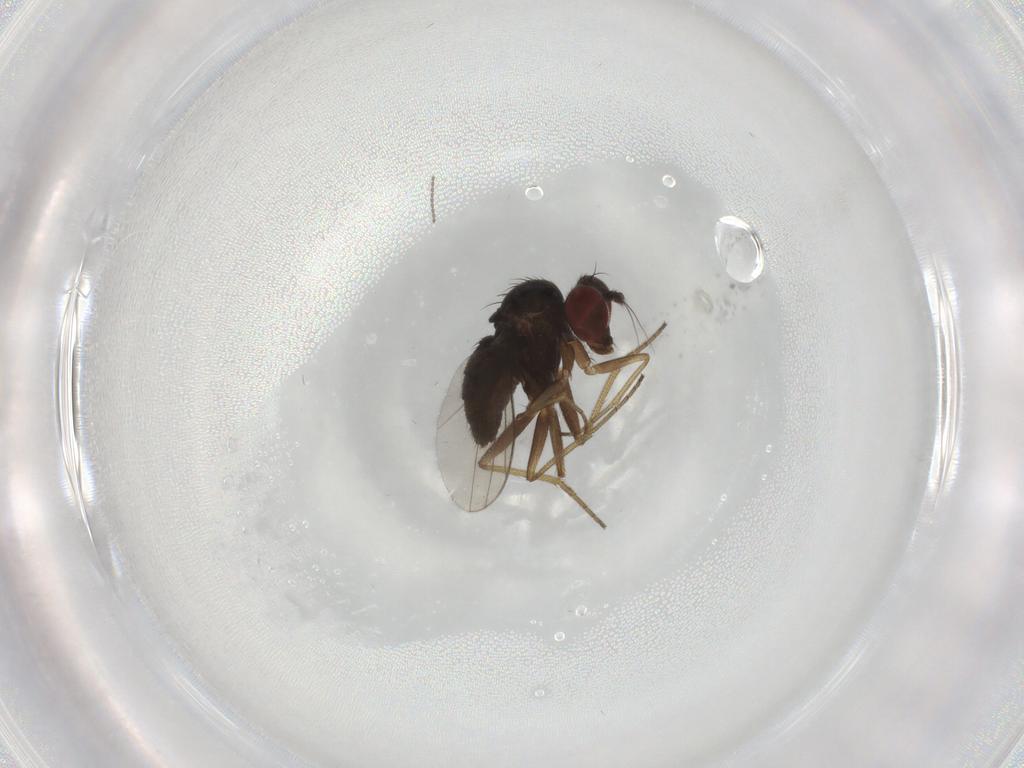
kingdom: Animalia
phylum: Arthropoda
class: Insecta
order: Diptera
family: Dolichopodidae
